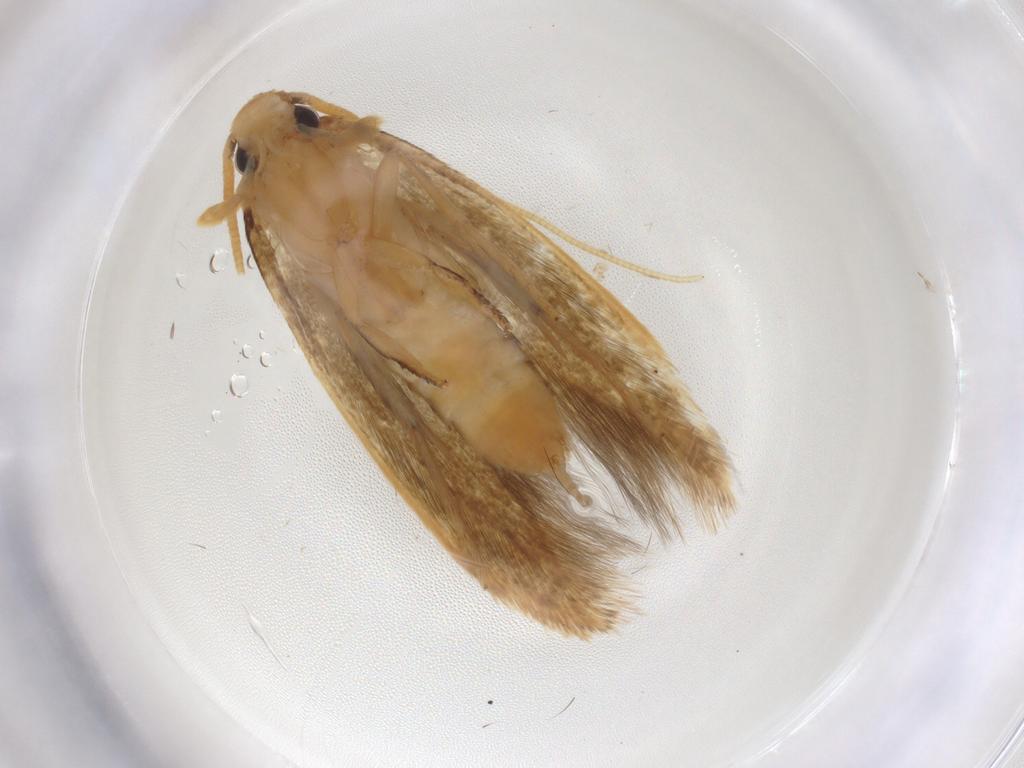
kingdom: Animalia
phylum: Arthropoda
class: Insecta
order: Lepidoptera
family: Tineidae
